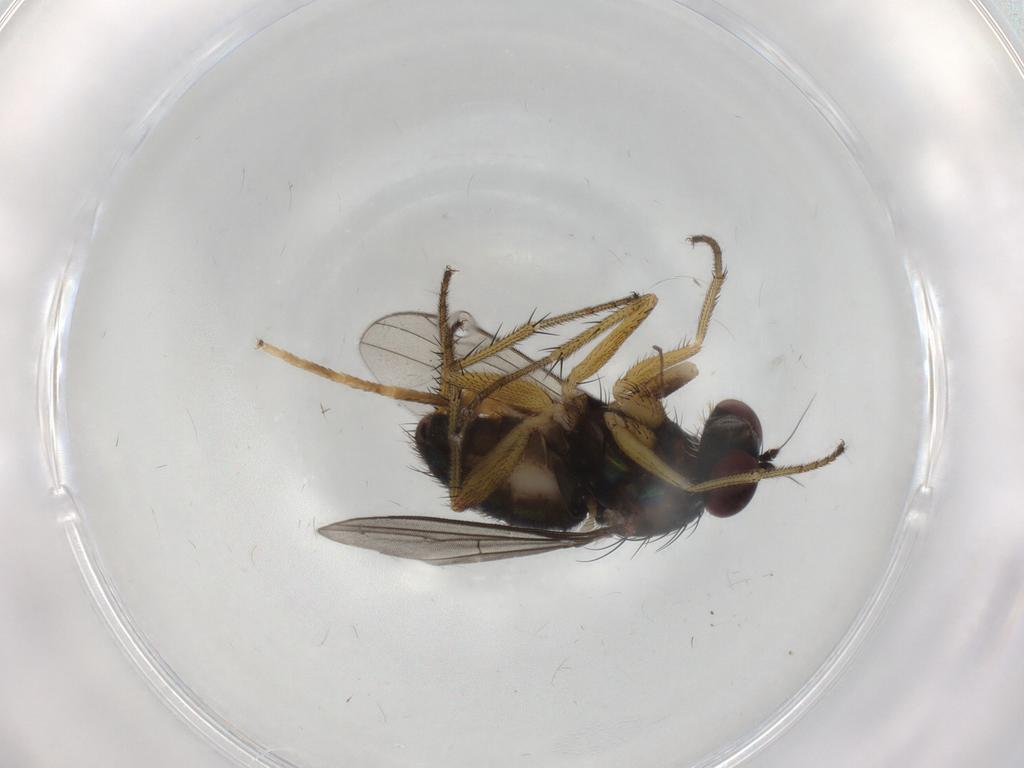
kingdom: Animalia
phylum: Arthropoda
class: Insecta
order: Diptera
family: Dolichopodidae
